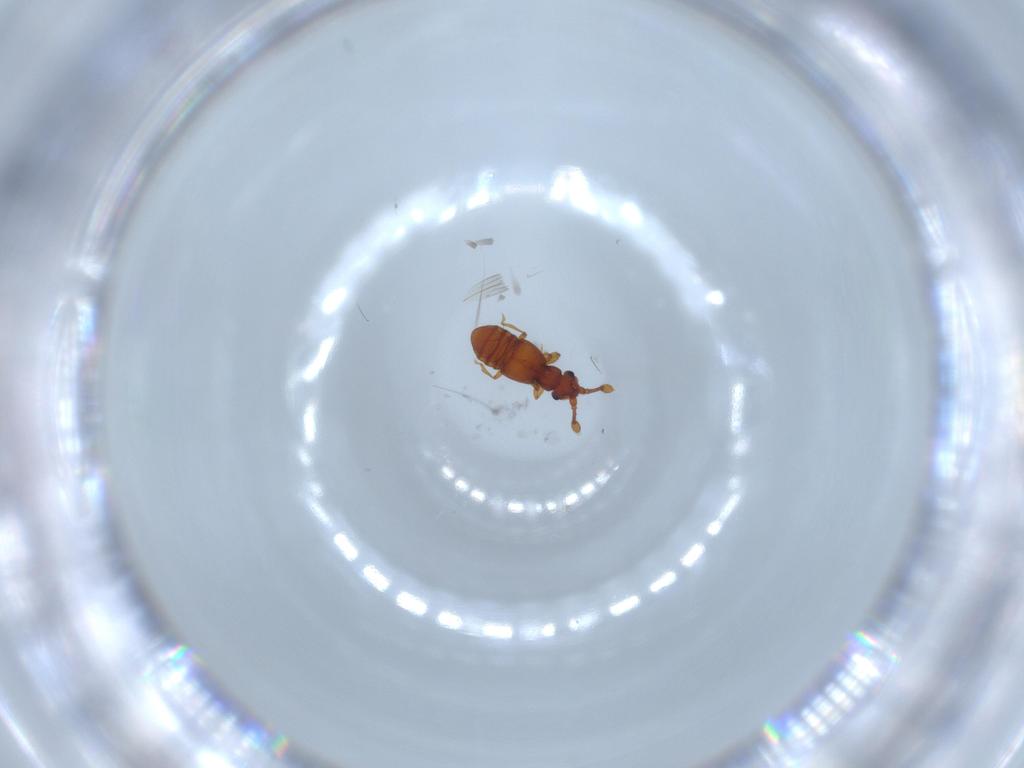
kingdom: Animalia
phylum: Arthropoda
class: Insecta
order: Coleoptera
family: Staphylinidae
